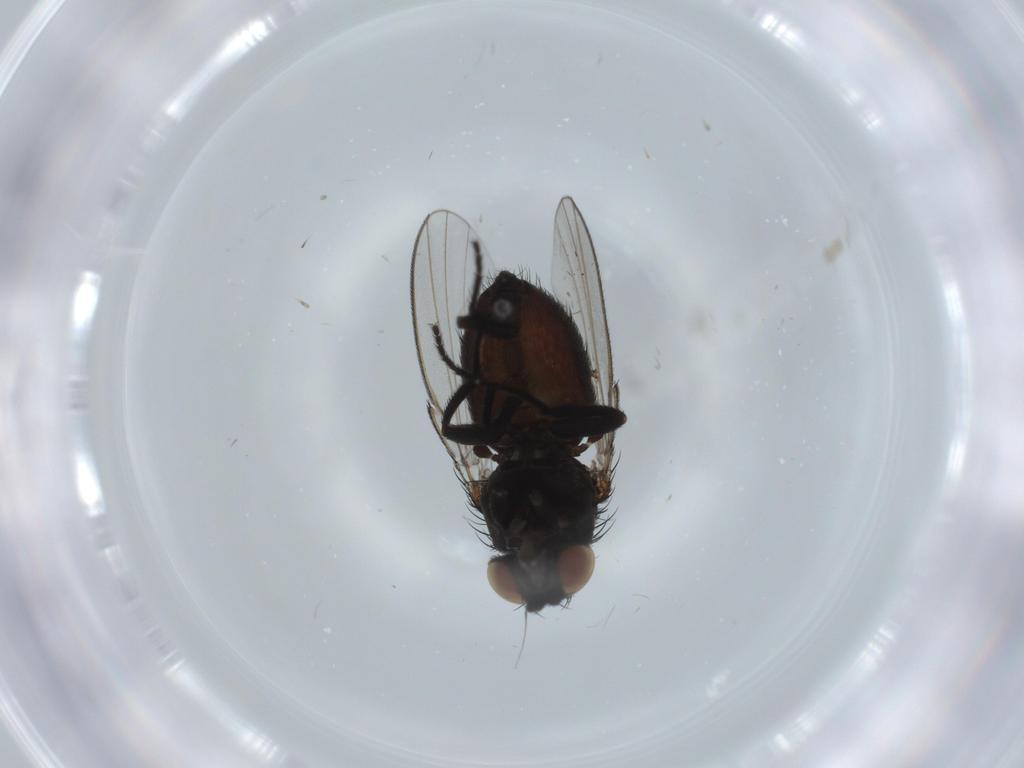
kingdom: Animalia
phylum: Arthropoda
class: Insecta
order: Diptera
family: Milichiidae
